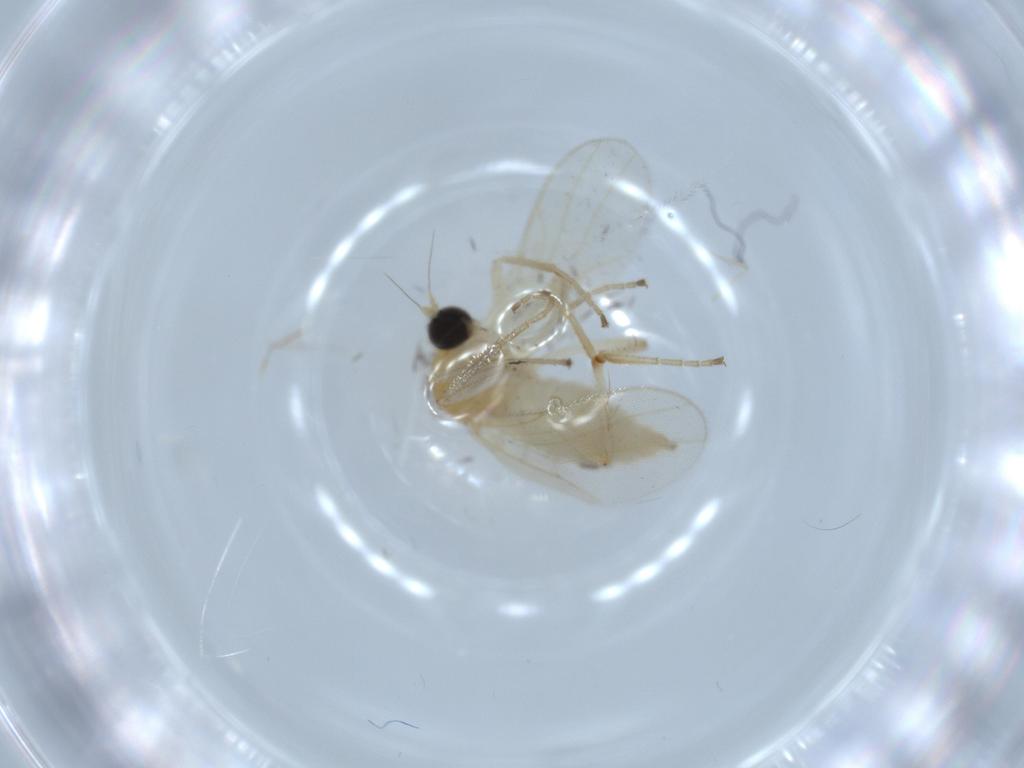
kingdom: Animalia
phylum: Arthropoda
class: Insecta
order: Diptera
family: Hybotidae
